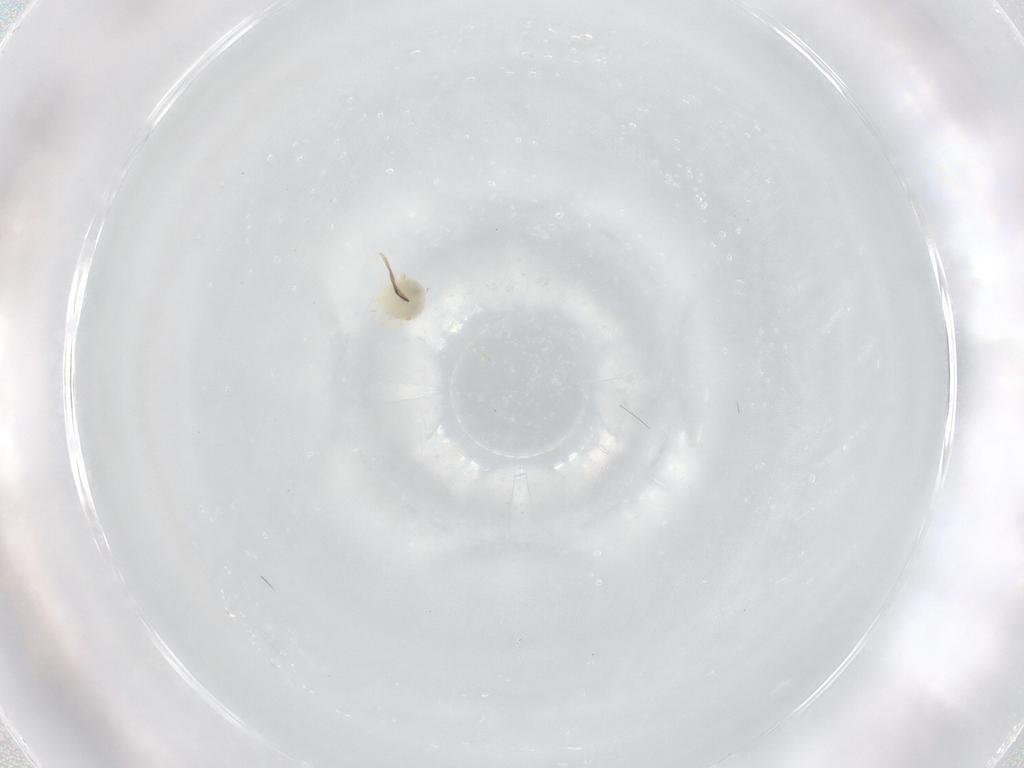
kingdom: Animalia
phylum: Arthropoda
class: Arachnida
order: Trombidiformes
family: Sperchontidae
